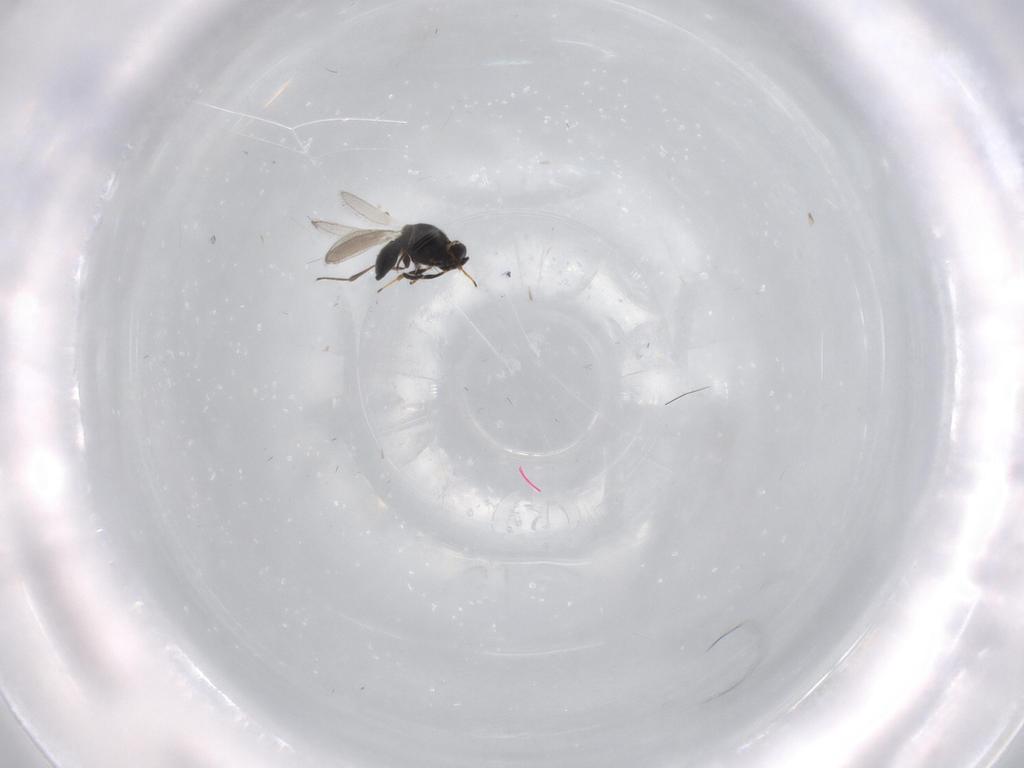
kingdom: Animalia
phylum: Arthropoda
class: Insecta
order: Hymenoptera
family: Platygastridae
